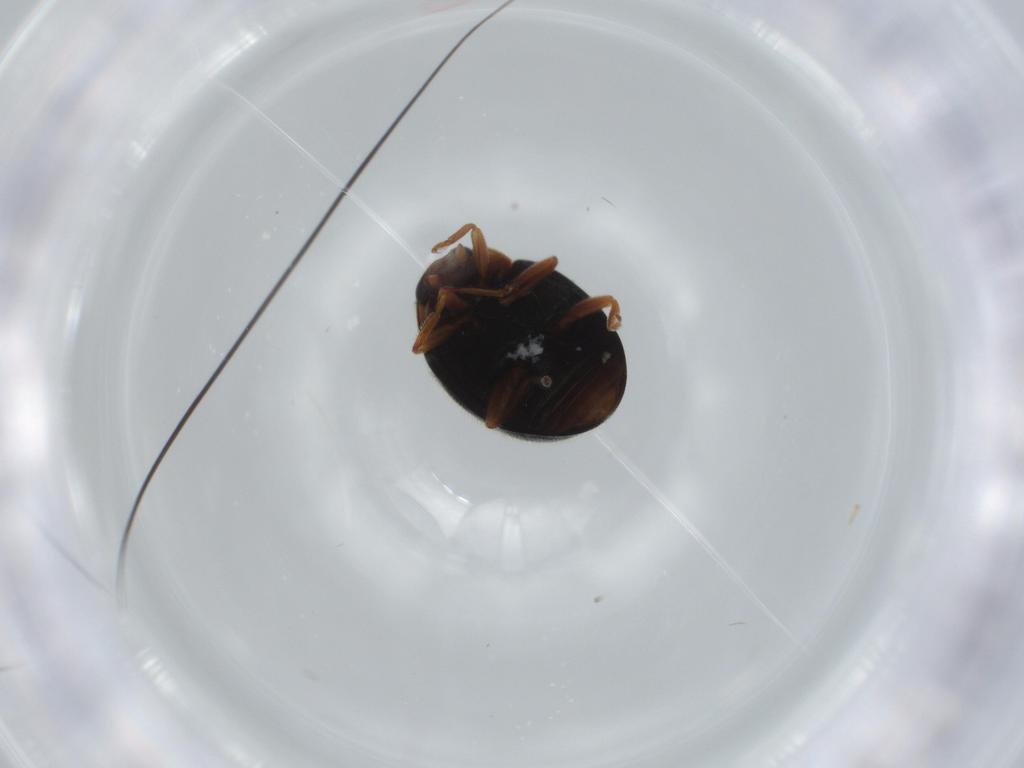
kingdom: Animalia
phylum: Arthropoda
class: Insecta
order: Coleoptera
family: Coccinellidae
